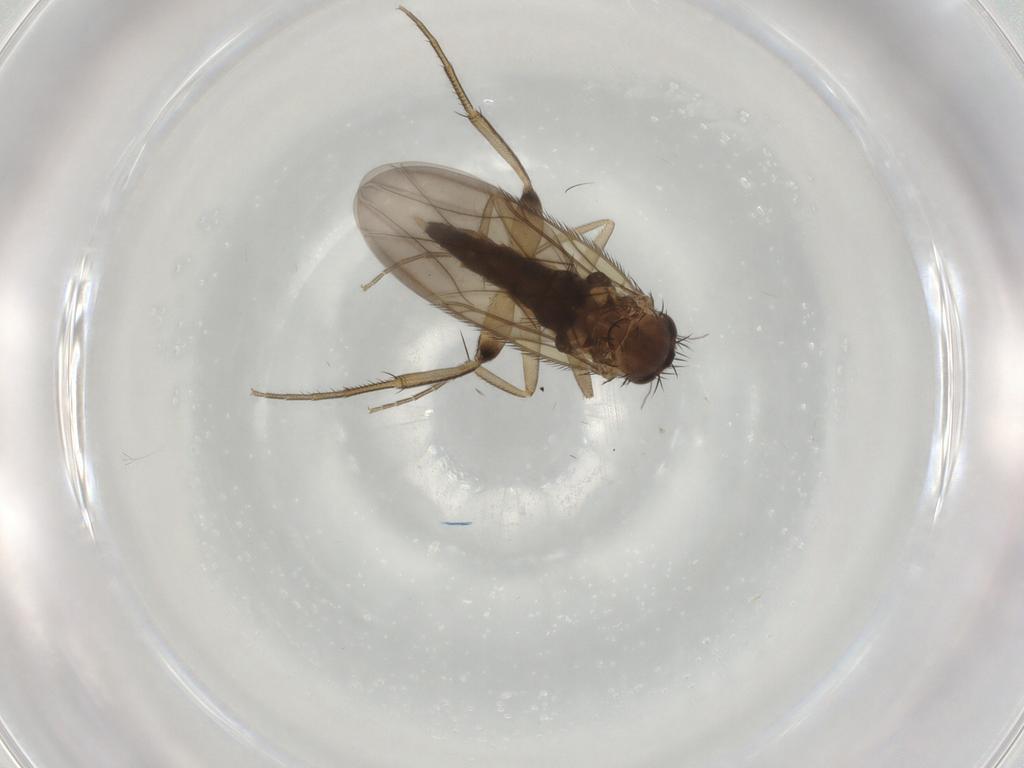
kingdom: Animalia
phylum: Arthropoda
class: Insecta
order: Diptera
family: Phoridae
